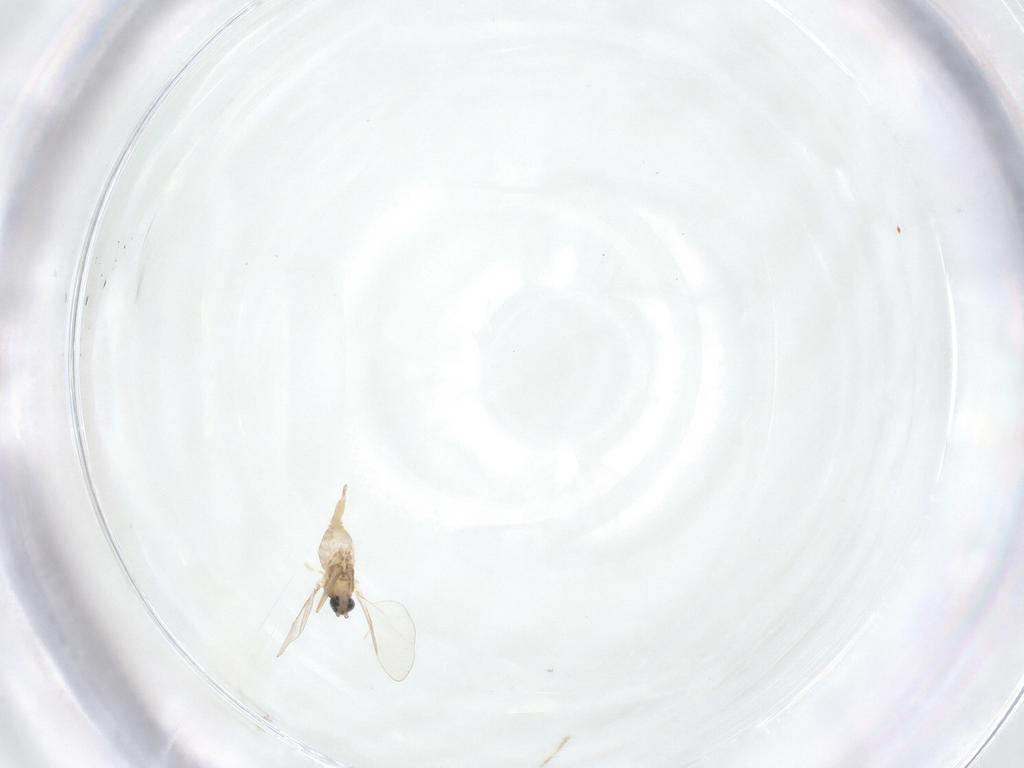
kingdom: Animalia
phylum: Arthropoda
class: Insecta
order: Diptera
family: Cecidomyiidae
